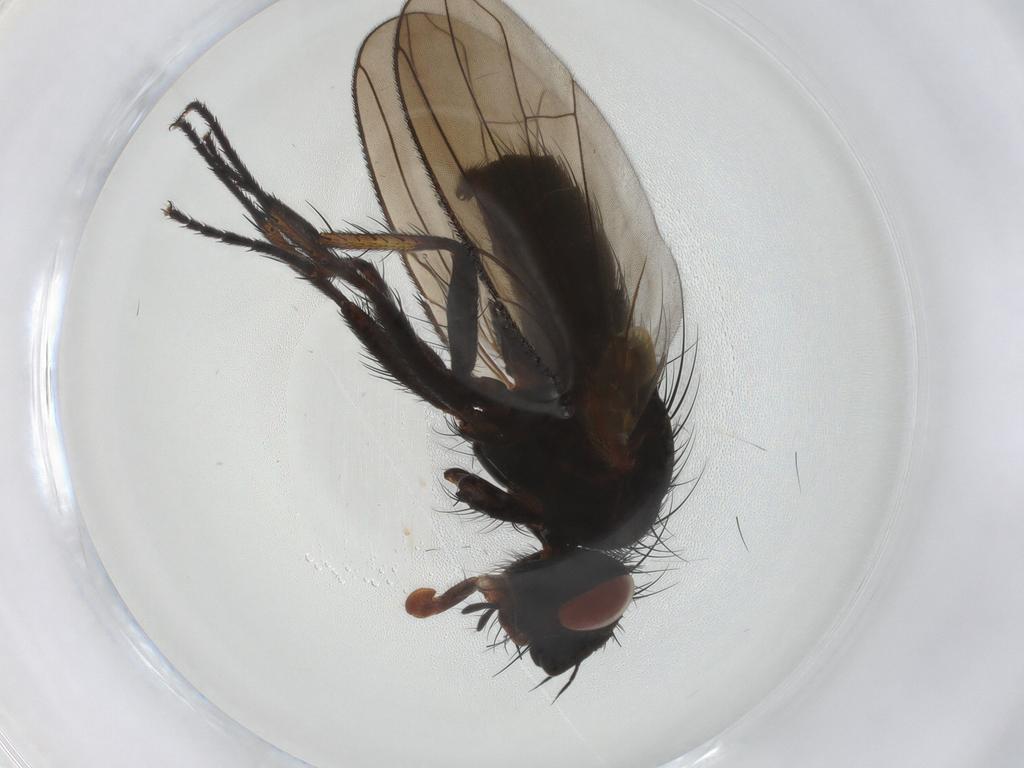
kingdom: Animalia
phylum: Arthropoda
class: Insecta
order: Diptera
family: Tachinidae
